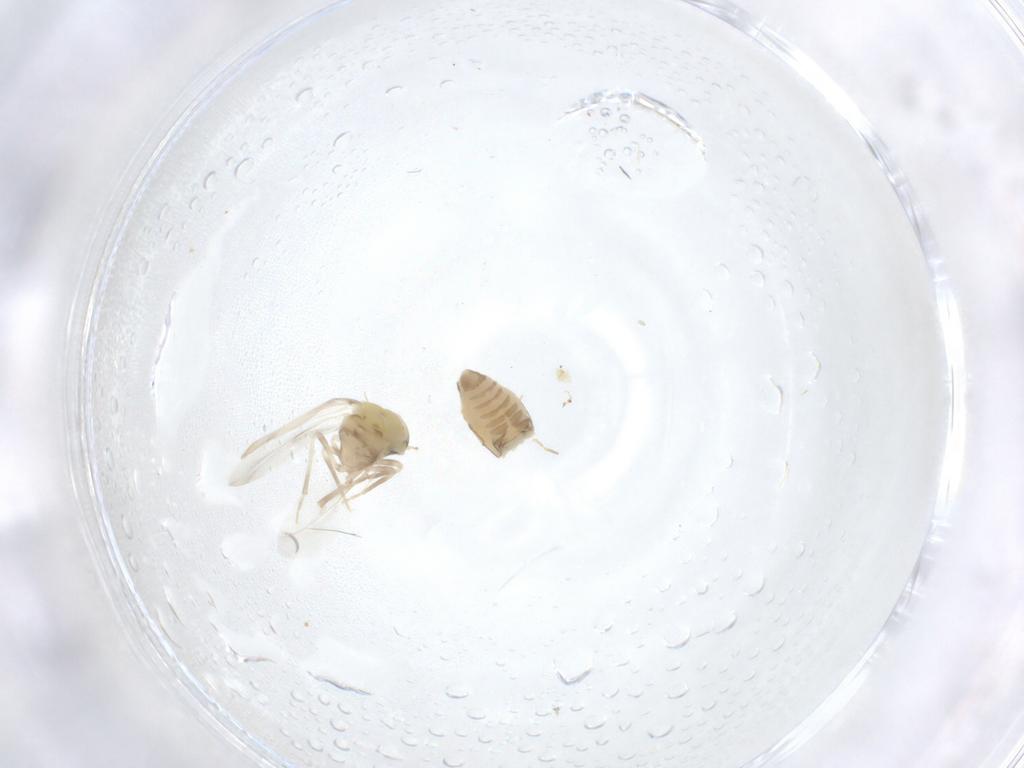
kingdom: Animalia
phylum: Arthropoda
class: Insecta
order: Hemiptera
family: Aleyrodidae
